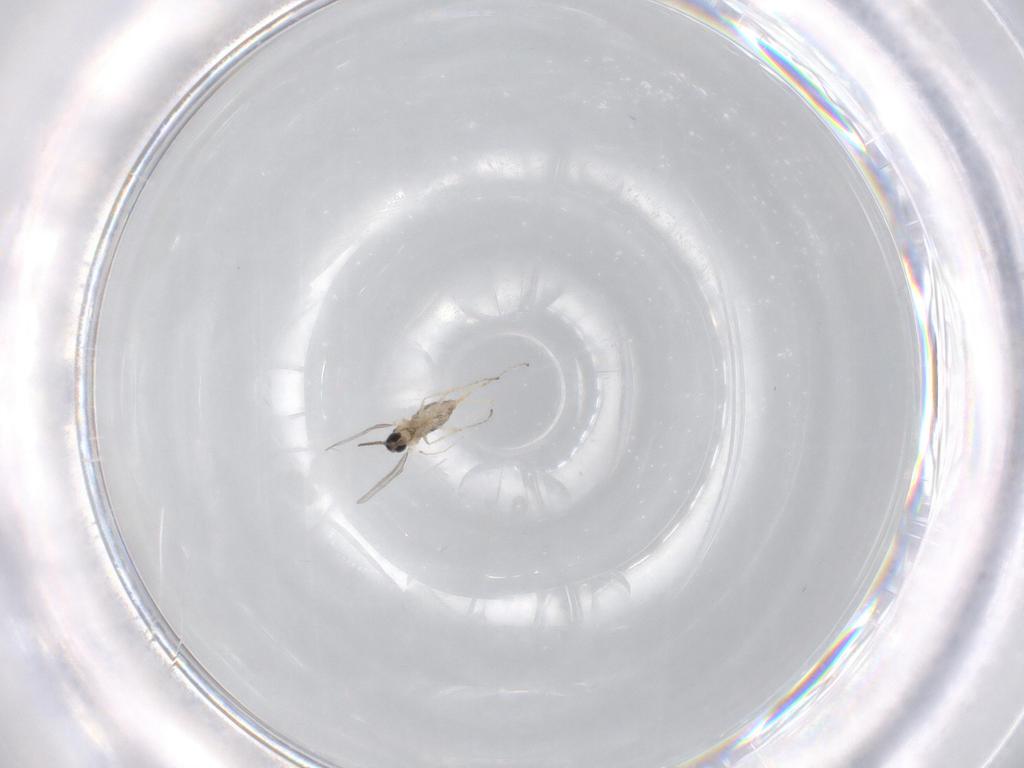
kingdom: Animalia
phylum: Arthropoda
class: Insecta
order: Diptera
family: Cecidomyiidae
